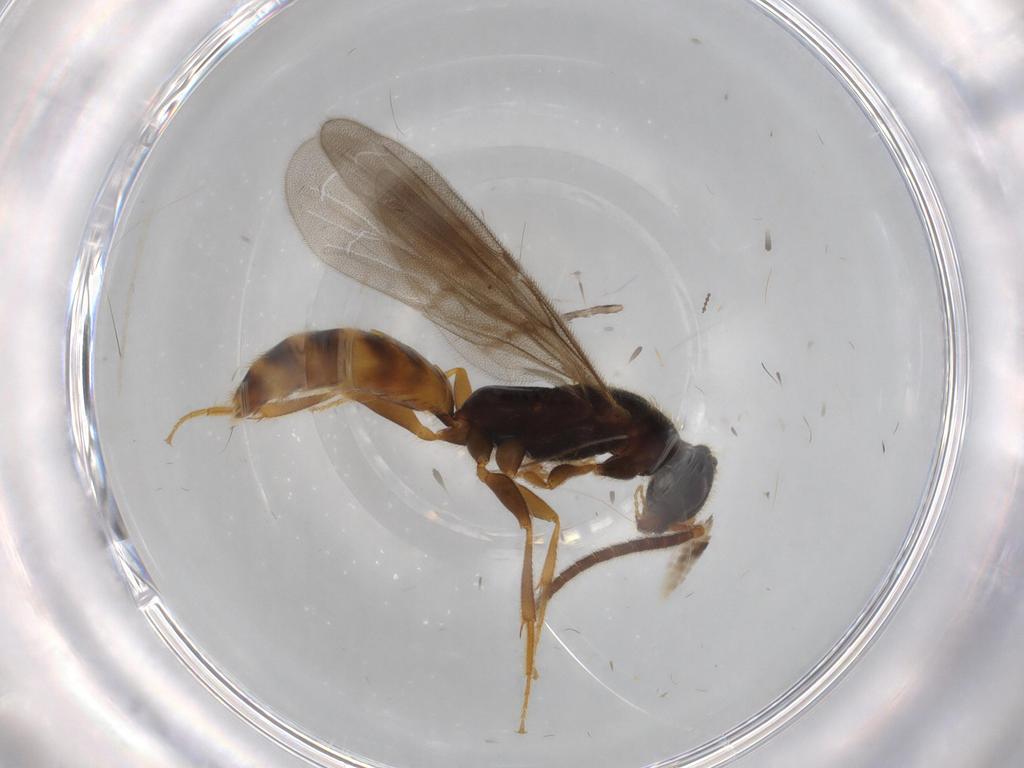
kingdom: Animalia
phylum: Arthropoda
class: Insecta
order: Hymenoptera
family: Bethylidae
